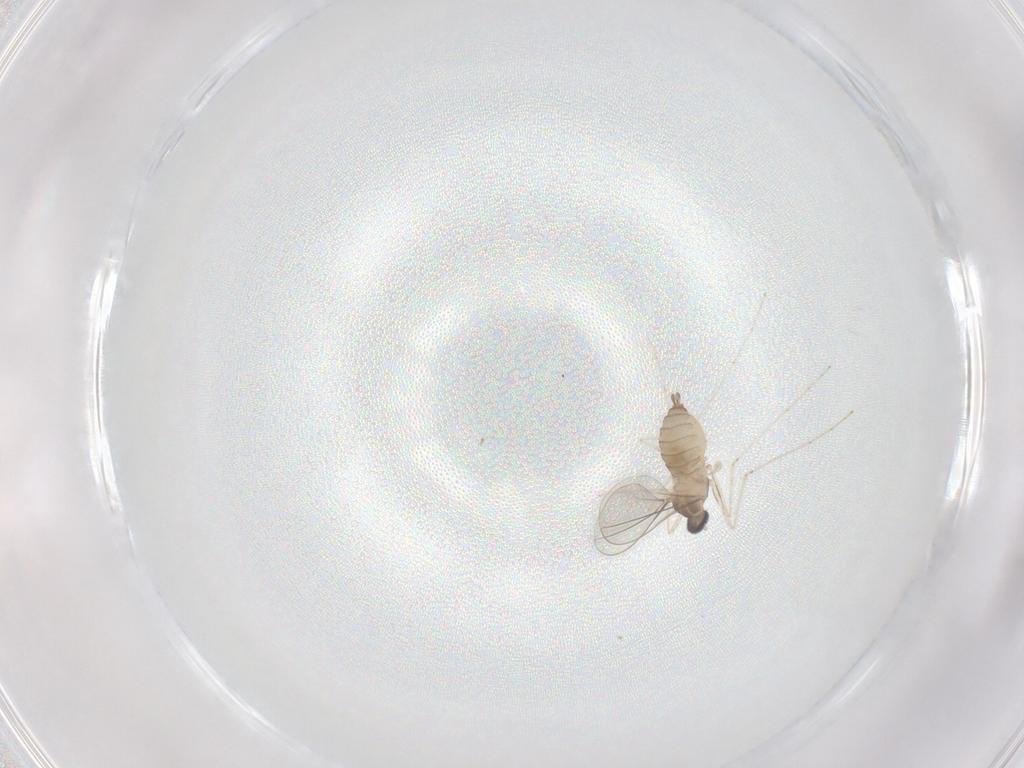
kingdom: Animalia
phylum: Arthropoda
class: Insecta
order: Diptera
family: Cecidomyiidae
